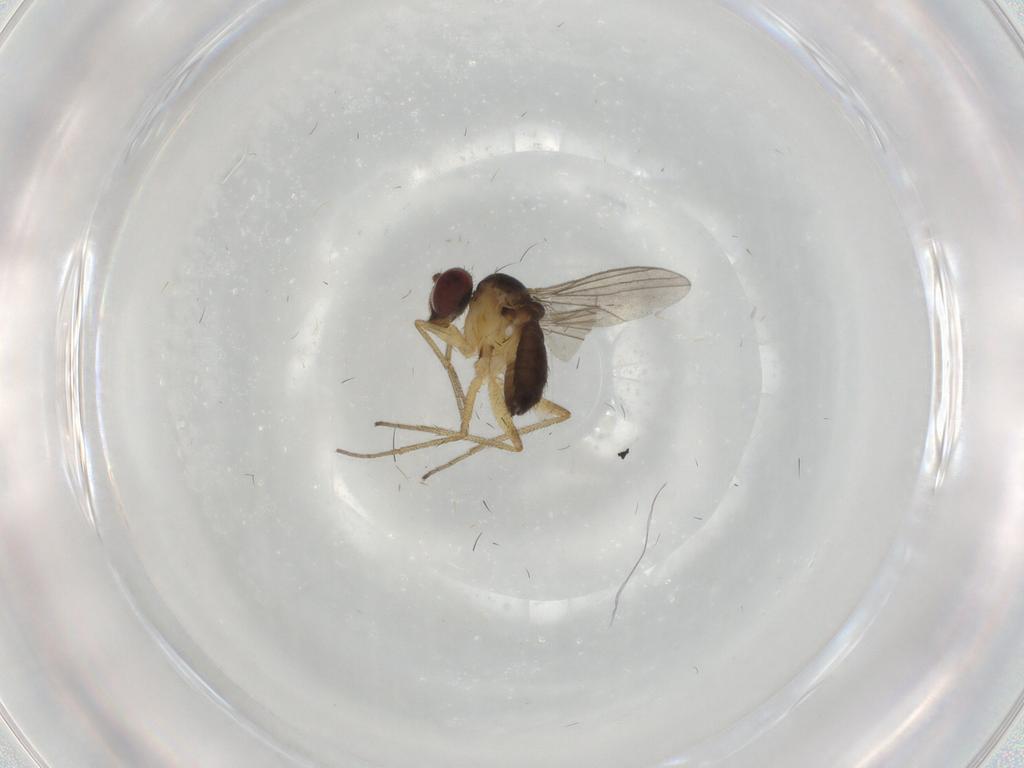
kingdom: Animalia
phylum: Arthropoda
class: Insecta
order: Diptera
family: Dolichopodidae
